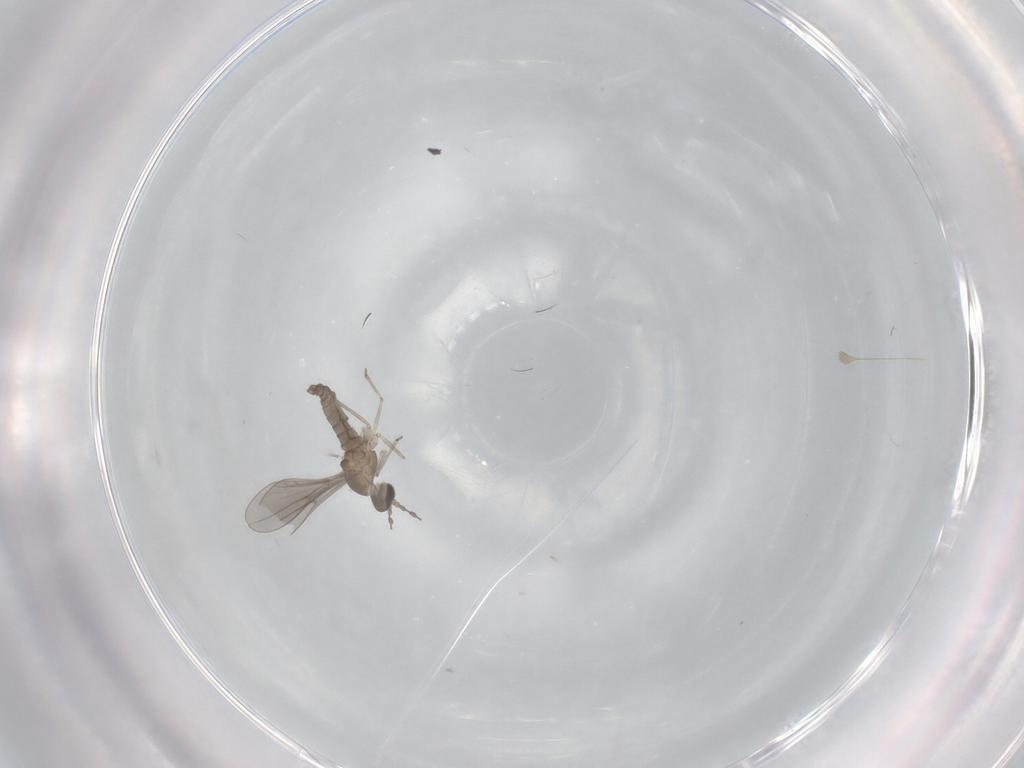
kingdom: Animalia
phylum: Arthropoda
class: Insecta
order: Diptera
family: Cecidomyiidae
